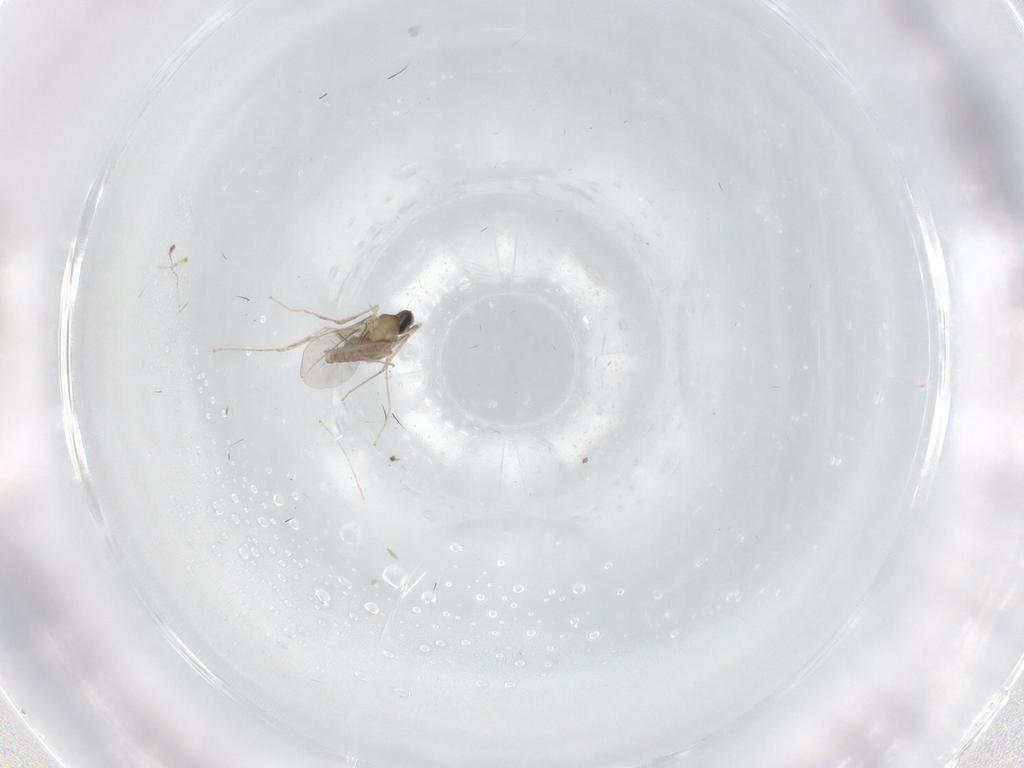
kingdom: Animalia
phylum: Arthropoda
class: Insecta
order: Diptera
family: Cecidomyiidae
